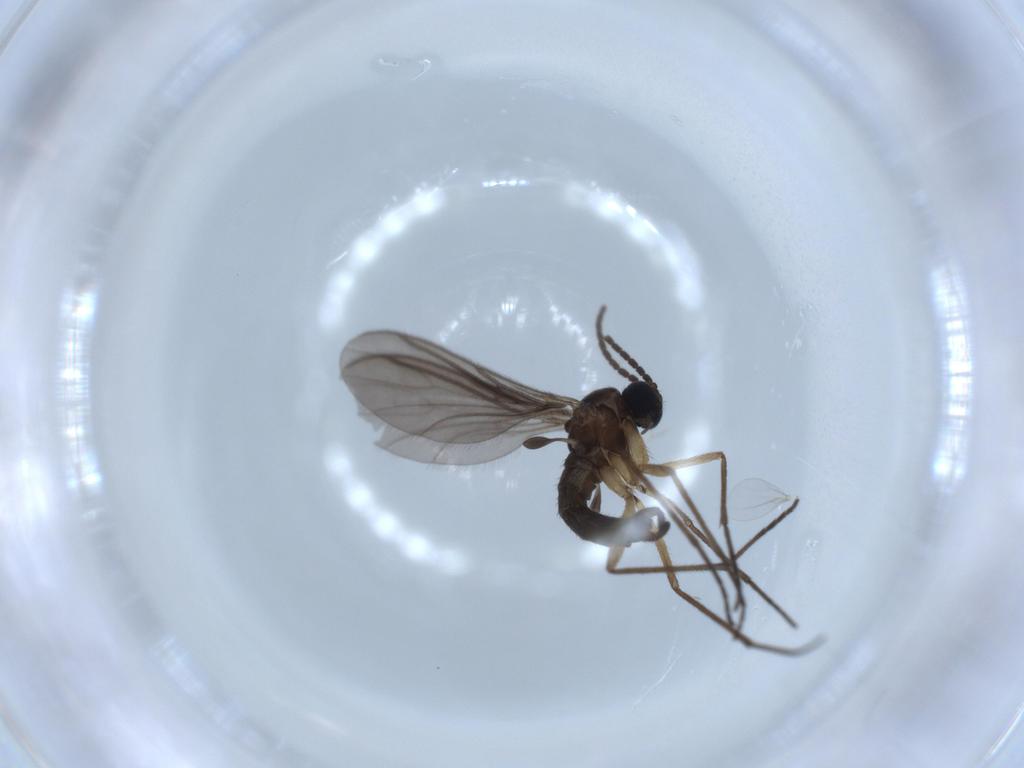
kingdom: Animalia
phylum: Arthropoda
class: Insecta
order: Diptera
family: Sciaridae
